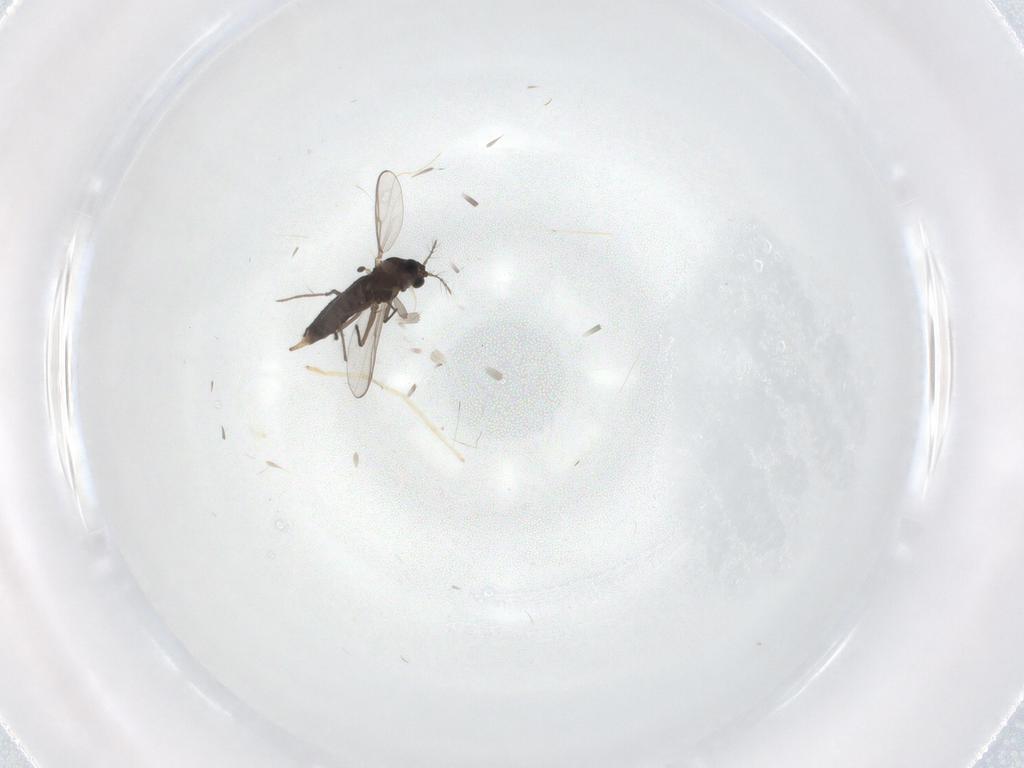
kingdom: Animalia
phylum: Arthropoda
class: Insecta
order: Diptera
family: Chironomidae
